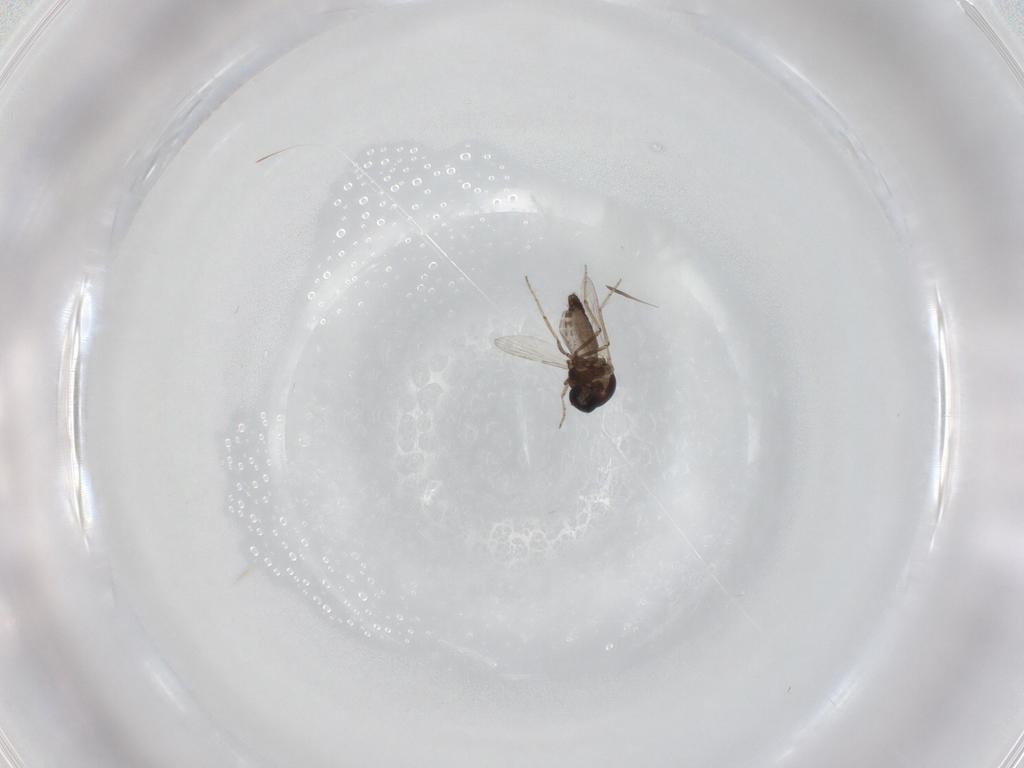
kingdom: Animalia
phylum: Arthropoda
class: Insecta
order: Diptera
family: Ceratopogonidae
